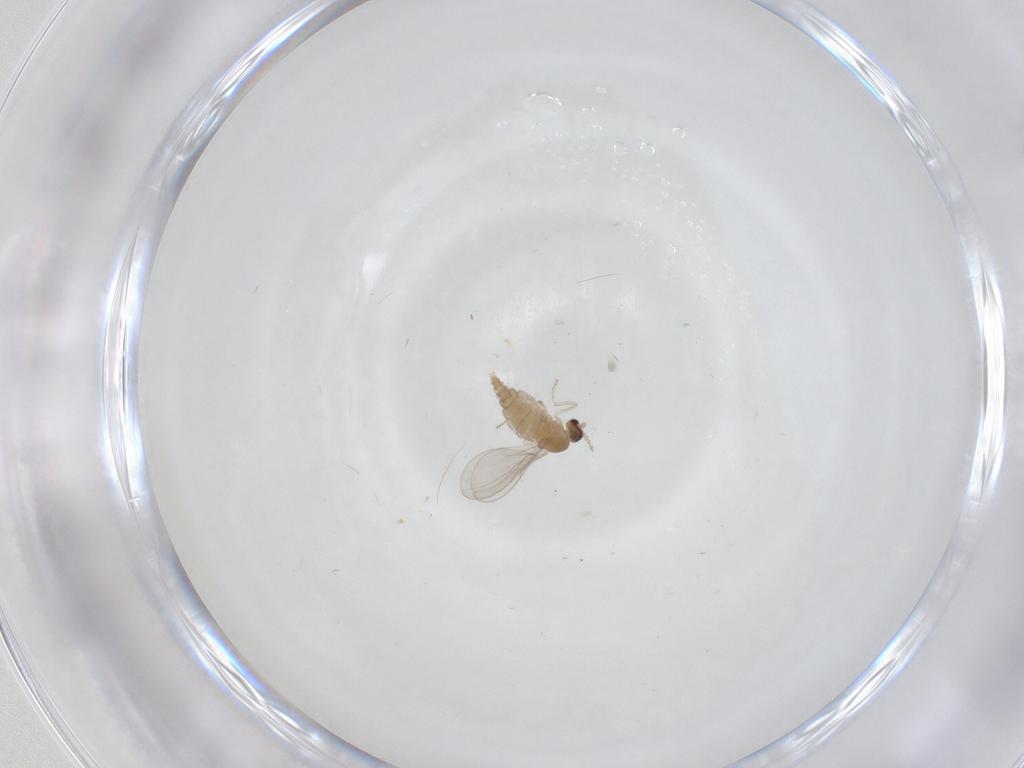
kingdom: Animalia
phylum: Arthropoda
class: Insecta
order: Diptera
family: Cecidomyiidae
